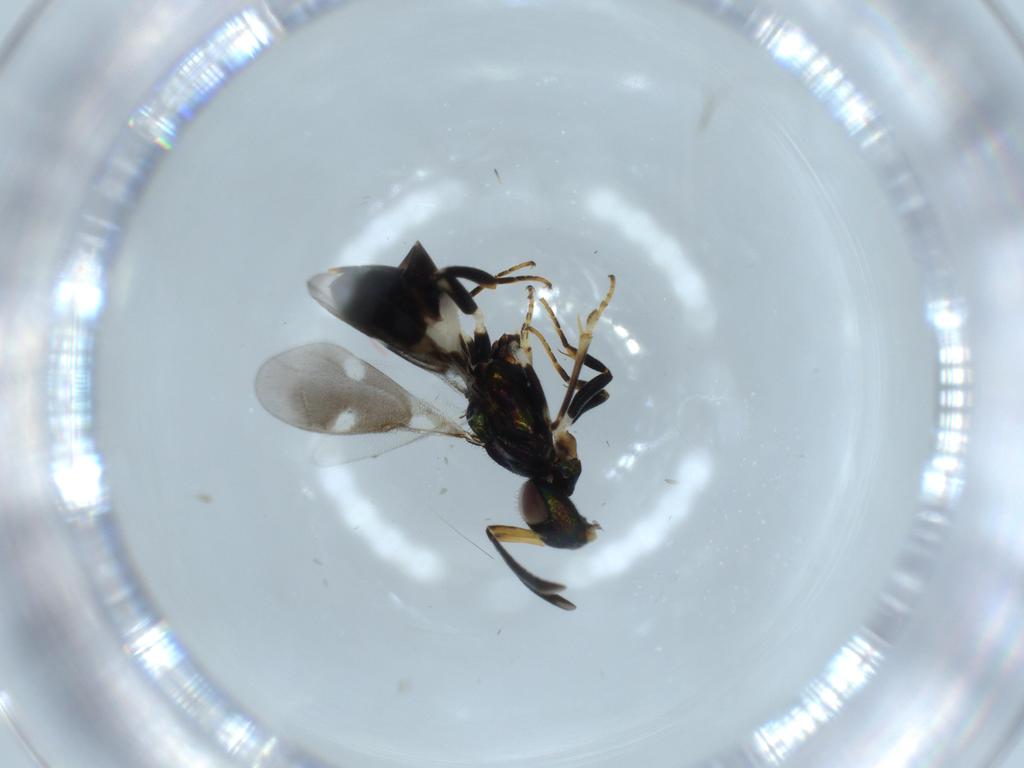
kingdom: Animalia
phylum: Arthropoda
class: Insecta
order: Hymenoptera
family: Eupelmidae
